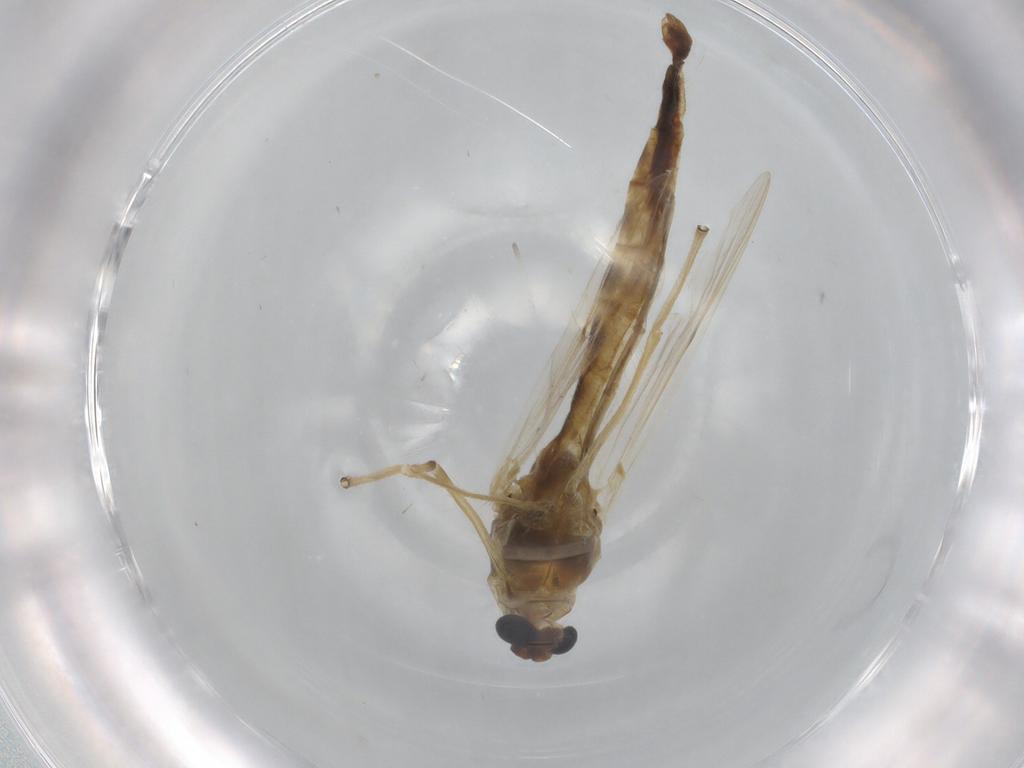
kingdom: Animalia
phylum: Arthropoda
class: Insecta
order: Diptera
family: Chironomidae
